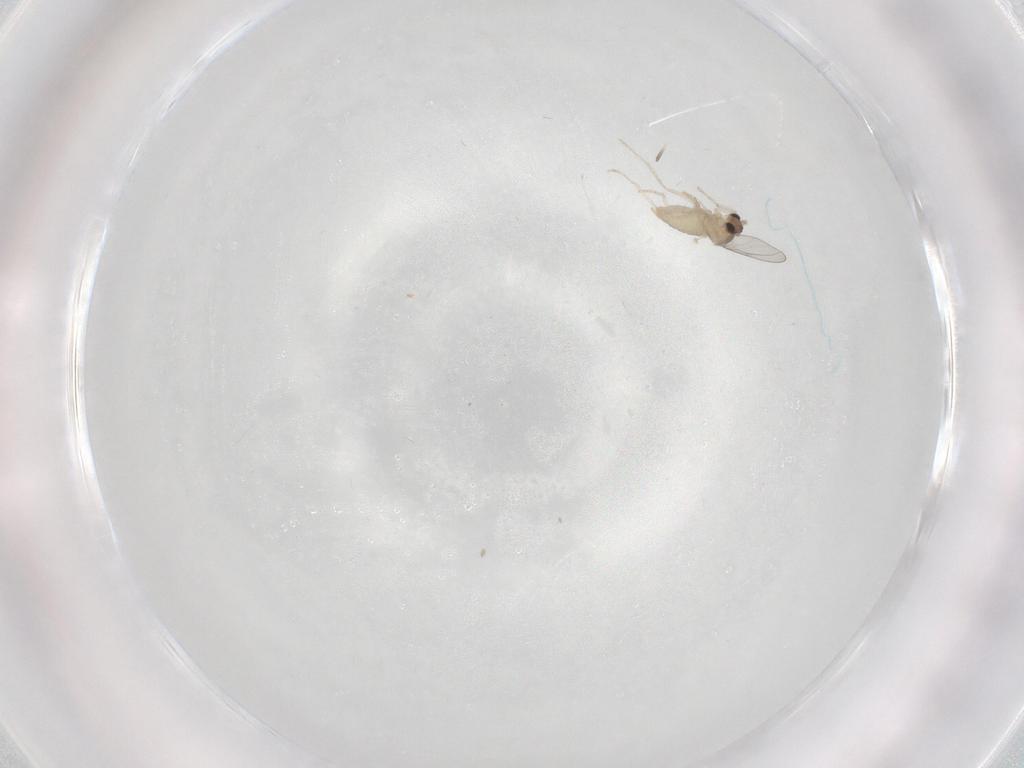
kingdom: Animalia
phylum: Arthropoda
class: Insecta
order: Diptera
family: Cecidomyiidae
